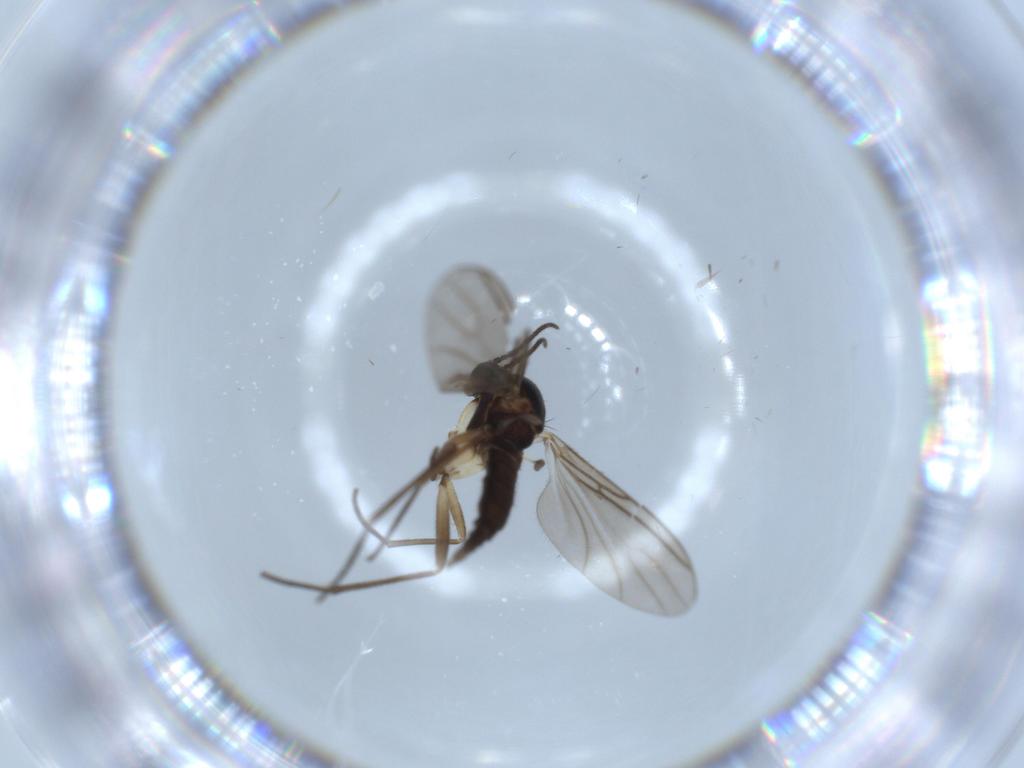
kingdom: Animalia
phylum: Arthropoda
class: Insecta
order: Diptera
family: Sciaridae
